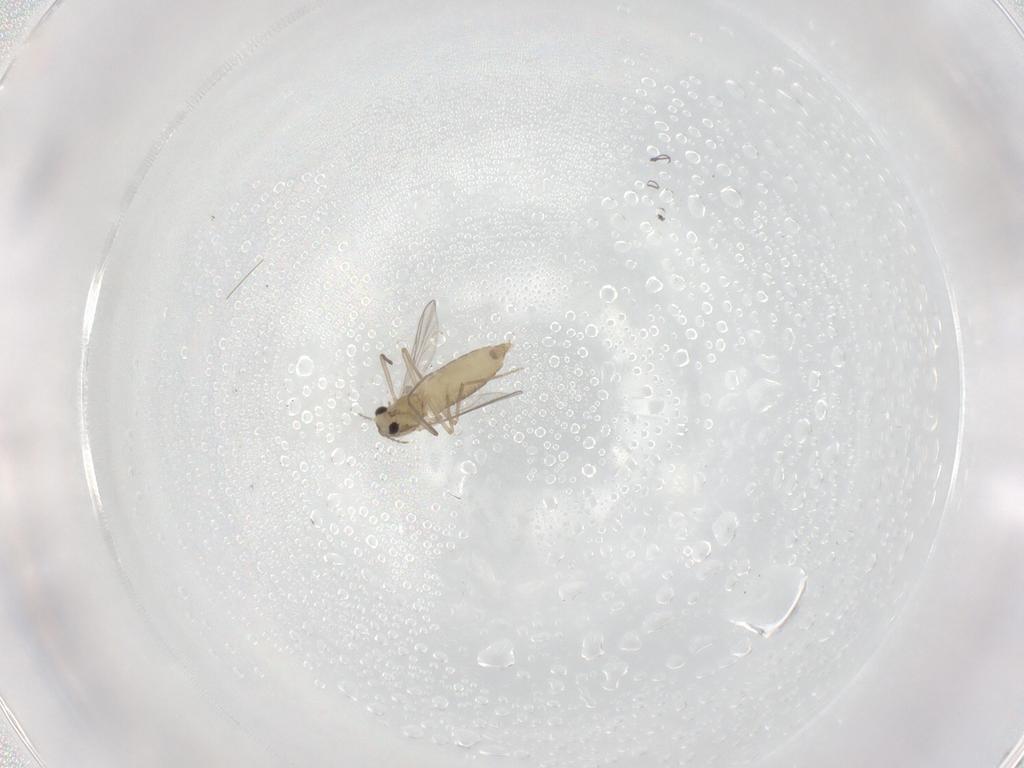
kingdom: Animalia
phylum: Arthropoda
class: Insecta
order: Diptera
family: Chironomidae
